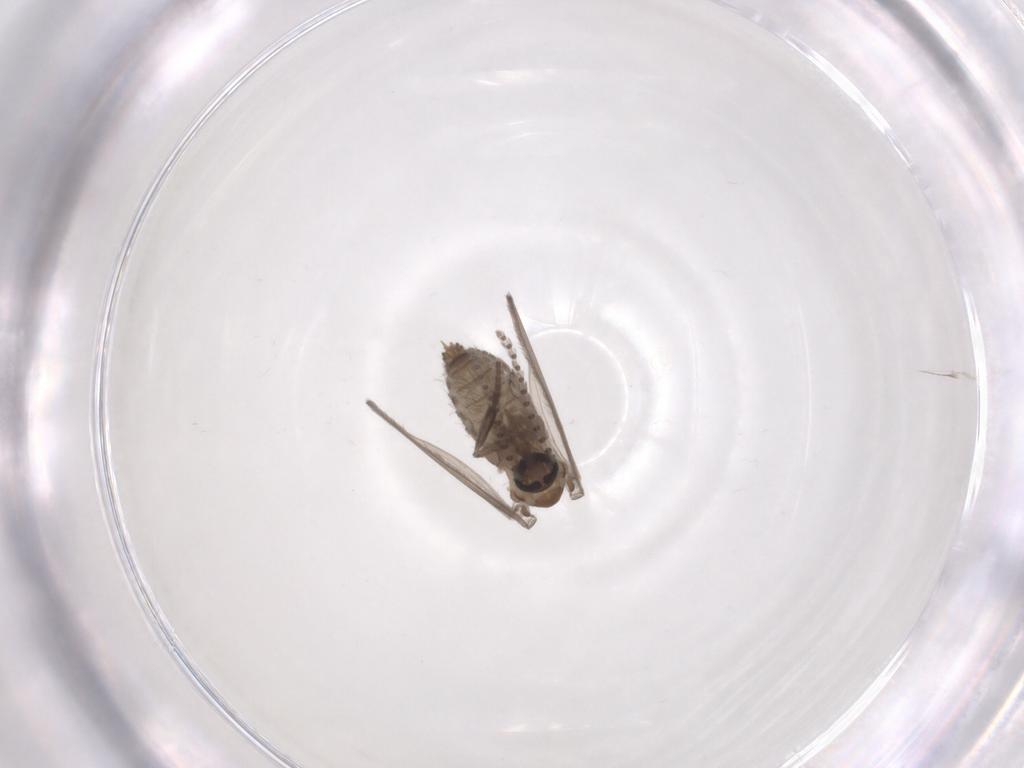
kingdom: Animalia
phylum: Arthropoda
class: Insecta
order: Diptera
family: Psychodidae
